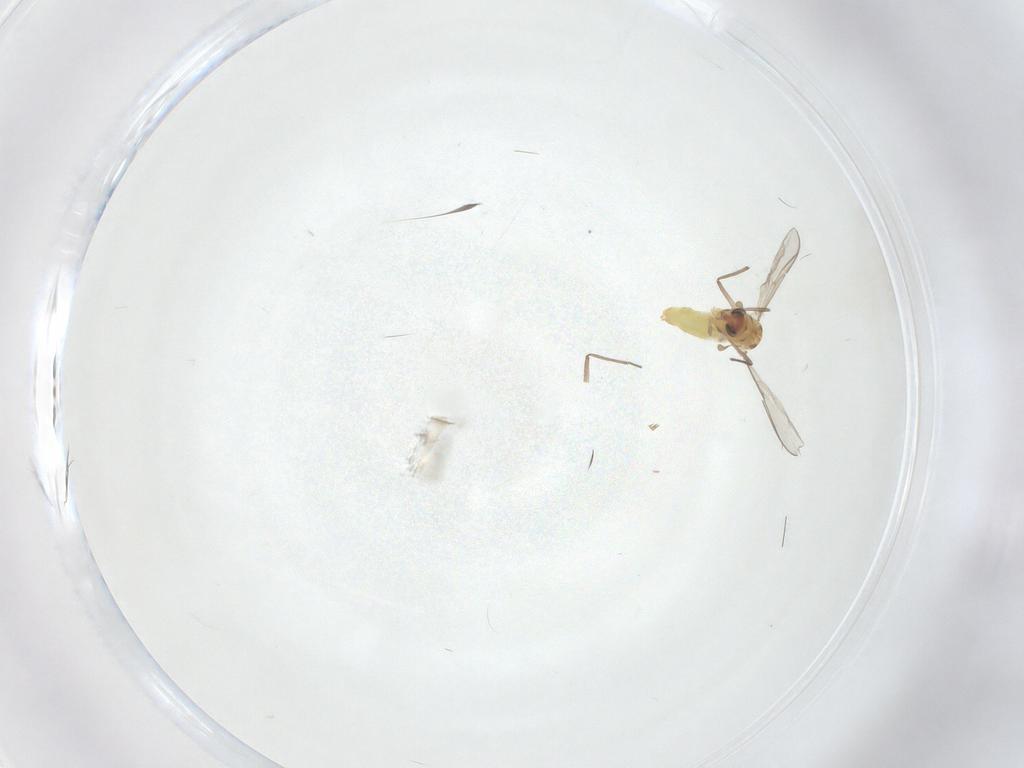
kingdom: Animalia
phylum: Arthropoda
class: Insecta
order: Diptera
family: Chironomidae
